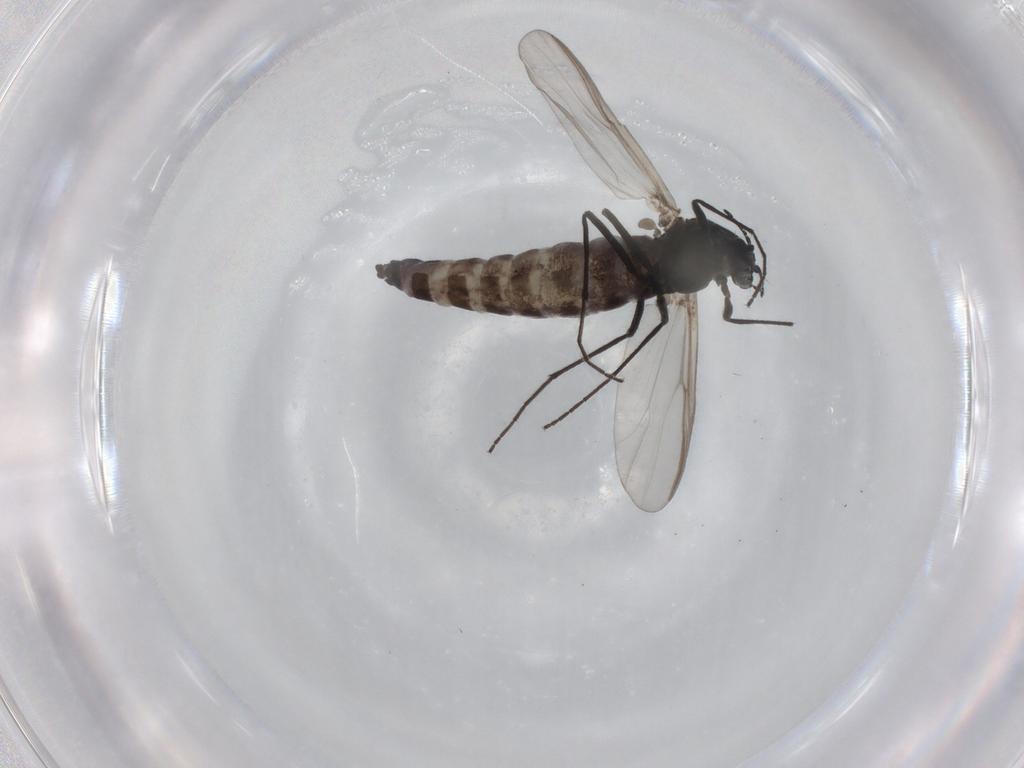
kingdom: Animalia
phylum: Arthropoda
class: Insecta
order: Diptera
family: Chironomidae
